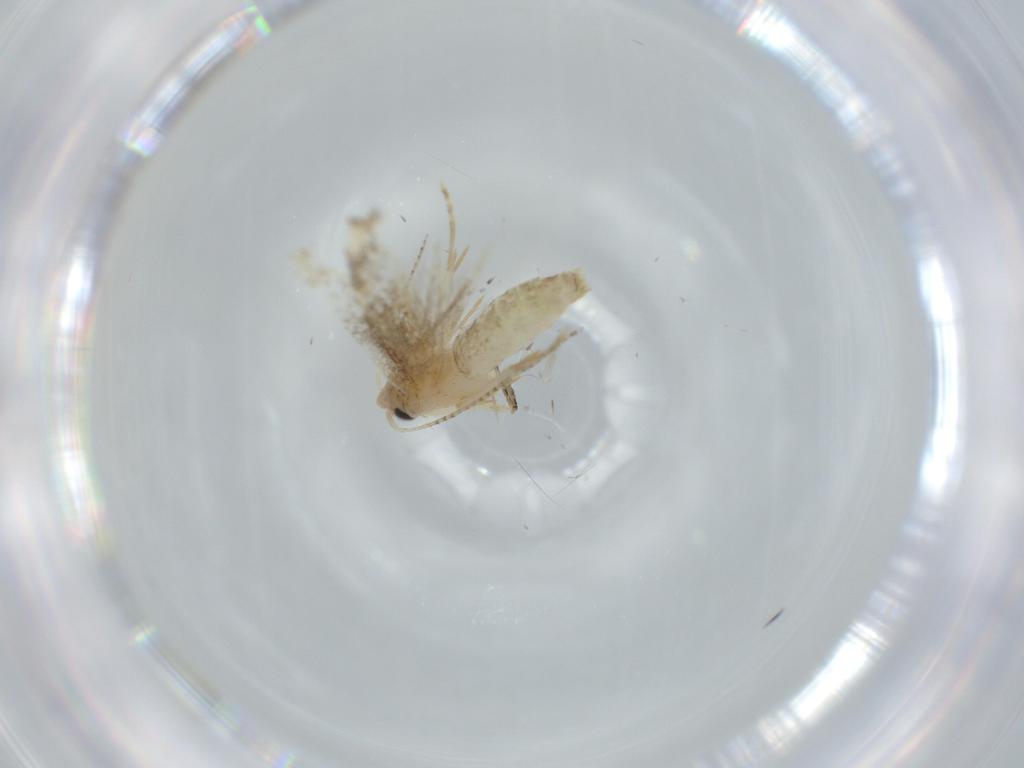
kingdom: Animalia
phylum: Arthropoda
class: Insecta
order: Lepidoptera
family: Bucculatricidae
